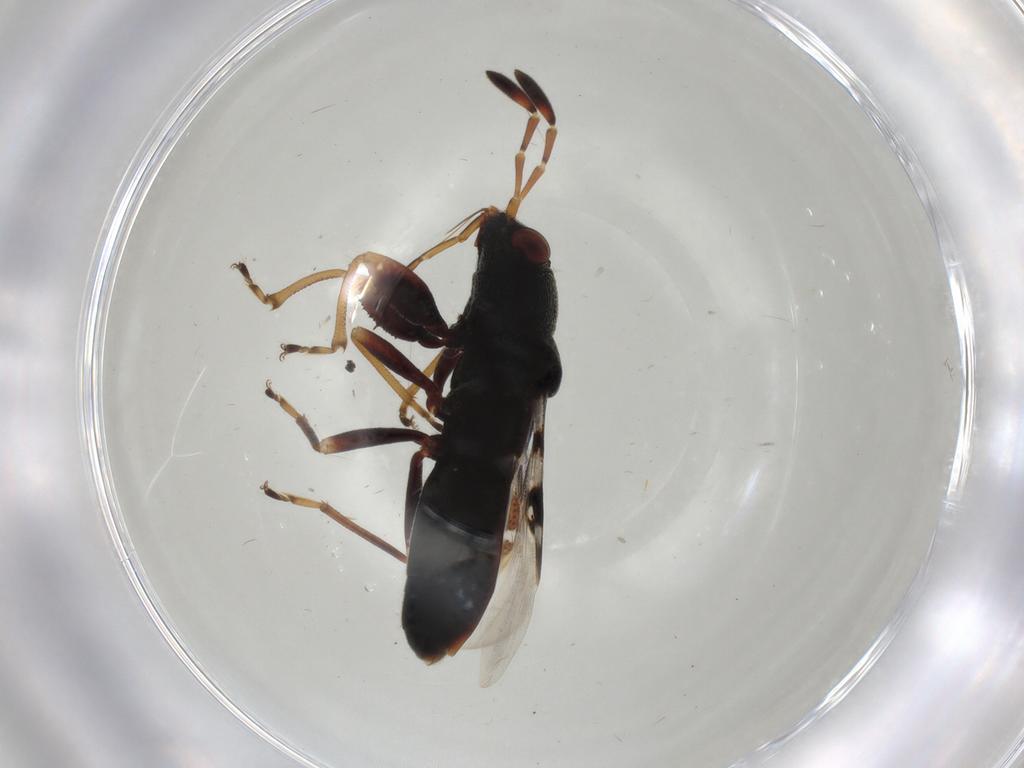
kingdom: Animalia
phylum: Arthropoda
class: Insecta
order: Hemiptera
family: Rhyparochromidae
